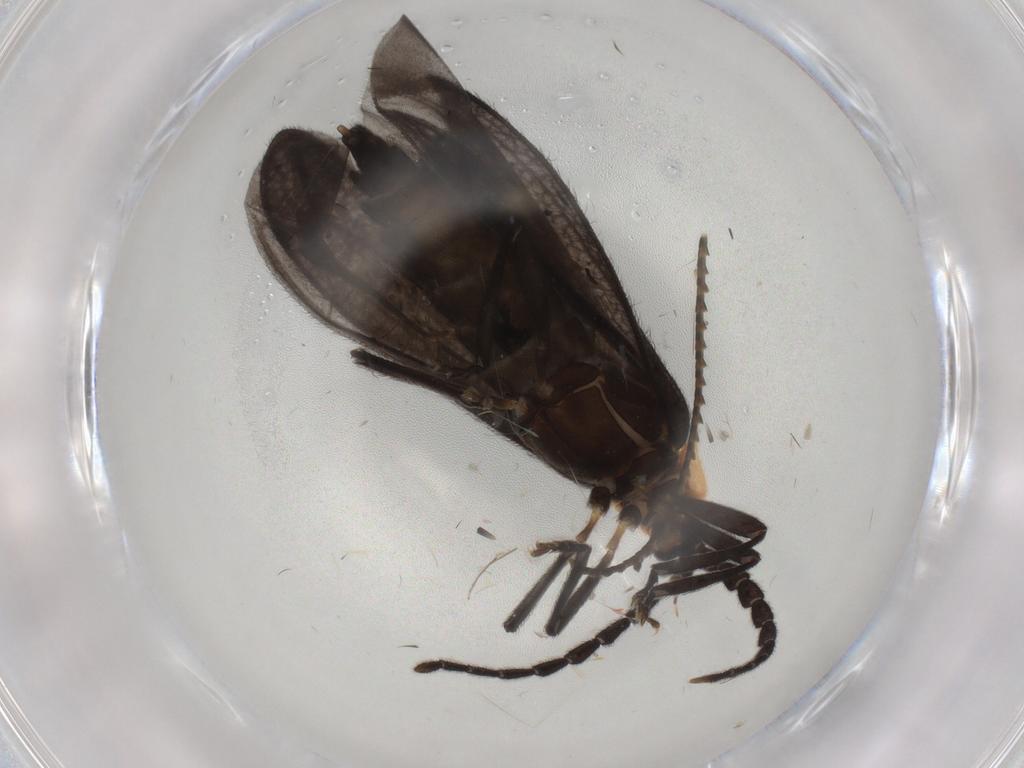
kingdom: Animalia
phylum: Arthropoda
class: Insecta
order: Coleoptera
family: Lycidae
